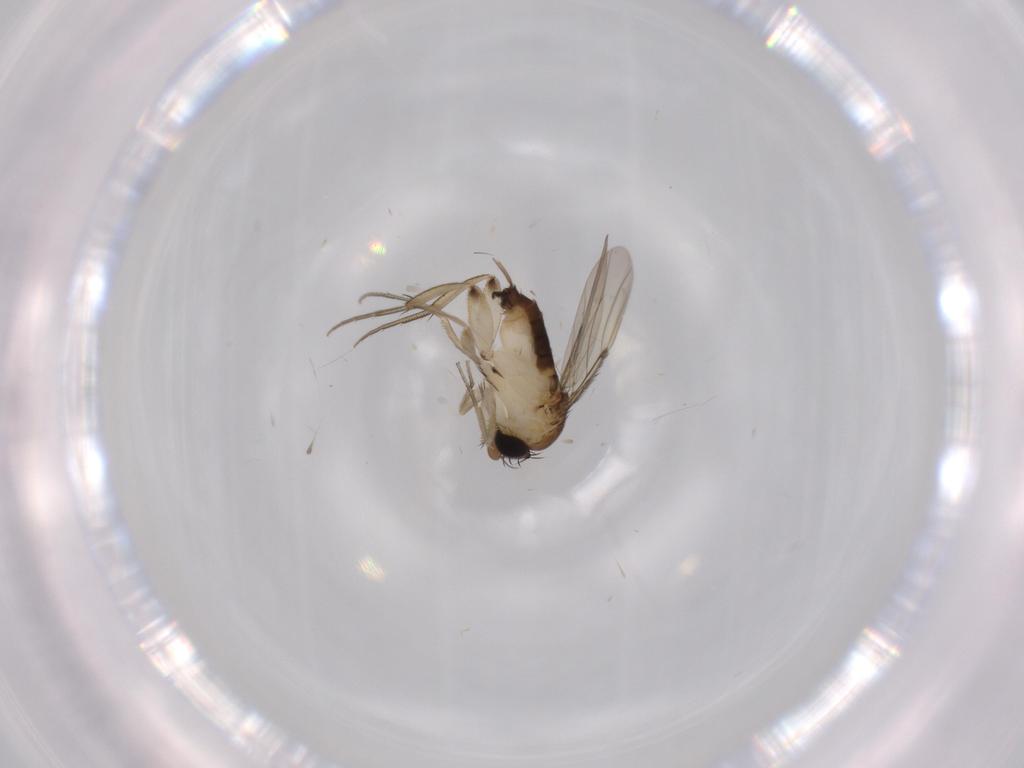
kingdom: Animalia
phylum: Arthropoda
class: Insecta
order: Diptera
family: Phoridae
